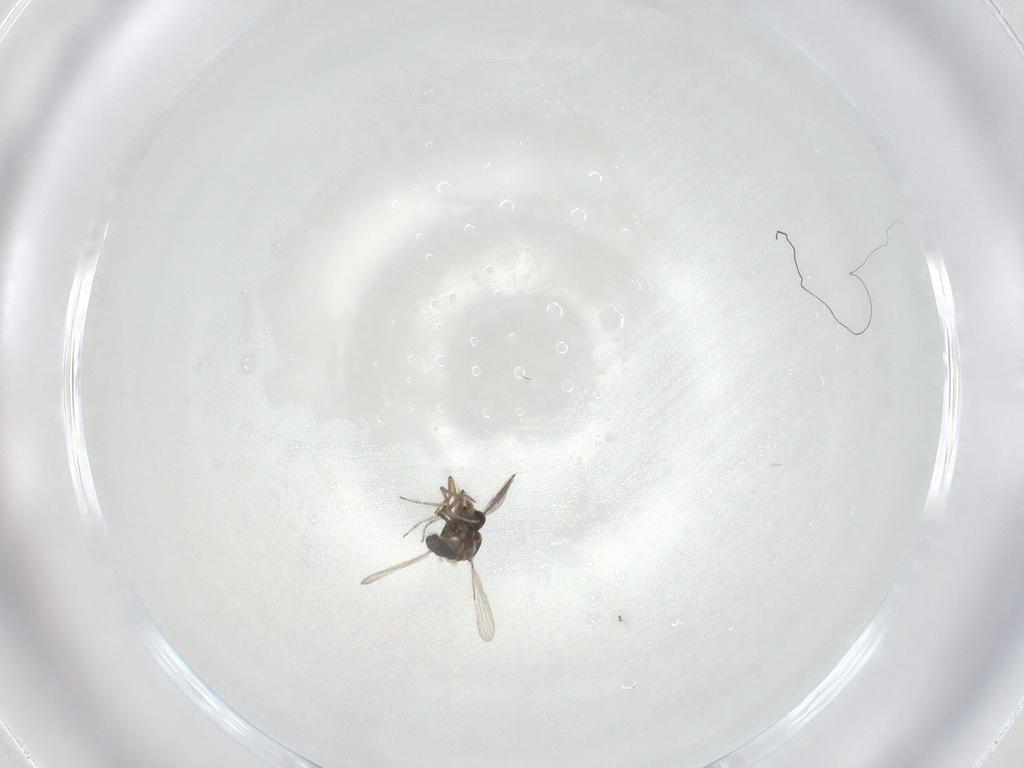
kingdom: Animalia
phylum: Arthropoda
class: Insecta
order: Diptera
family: Ceratopogonidae
